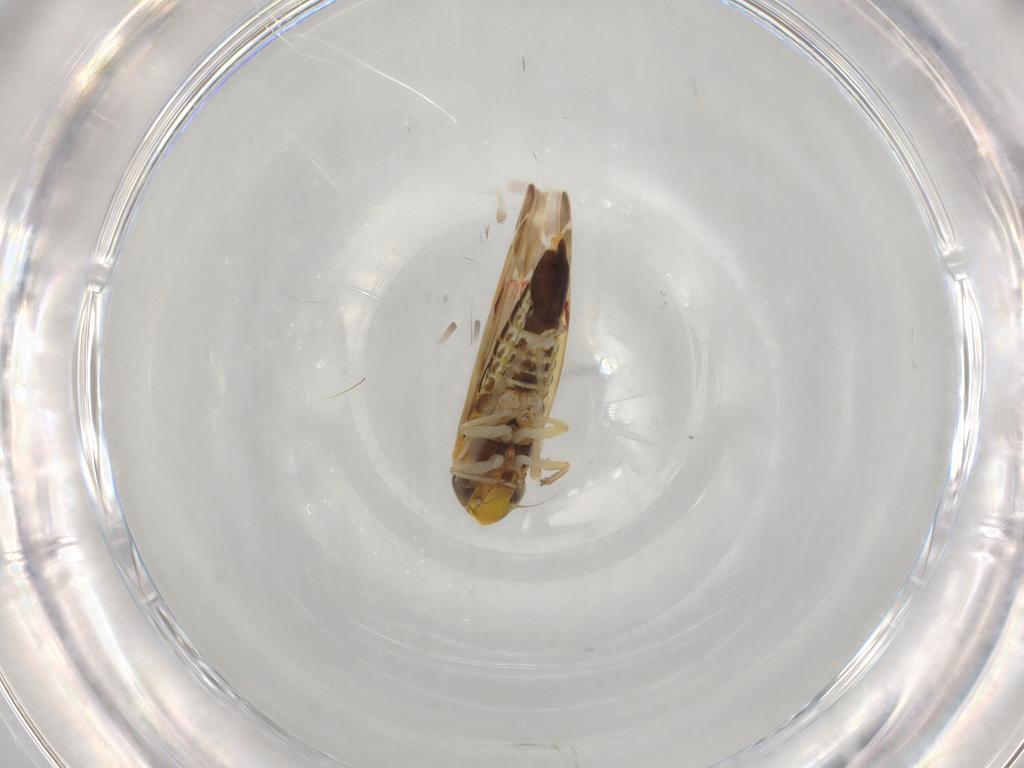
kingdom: Animalia
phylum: Arthropoda
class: Insecta
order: Hemiptera
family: Cicadellidae
